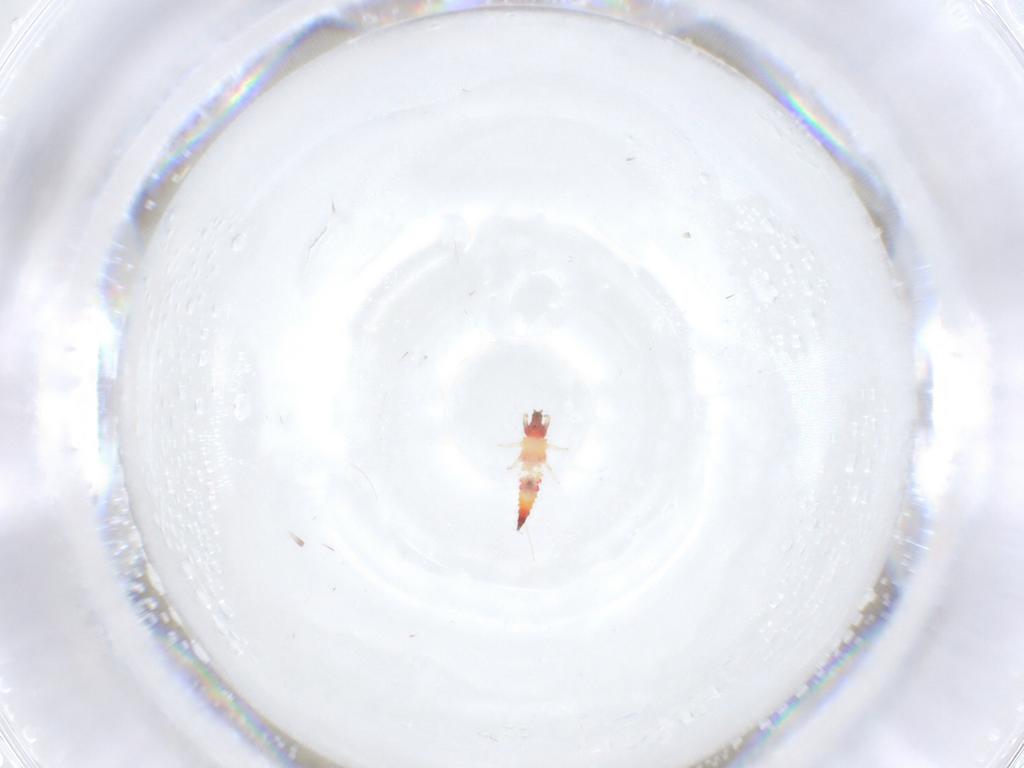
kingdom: Animalia
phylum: Arthropoda
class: Insecta
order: Thysanoptera
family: Phlaeothripidae
